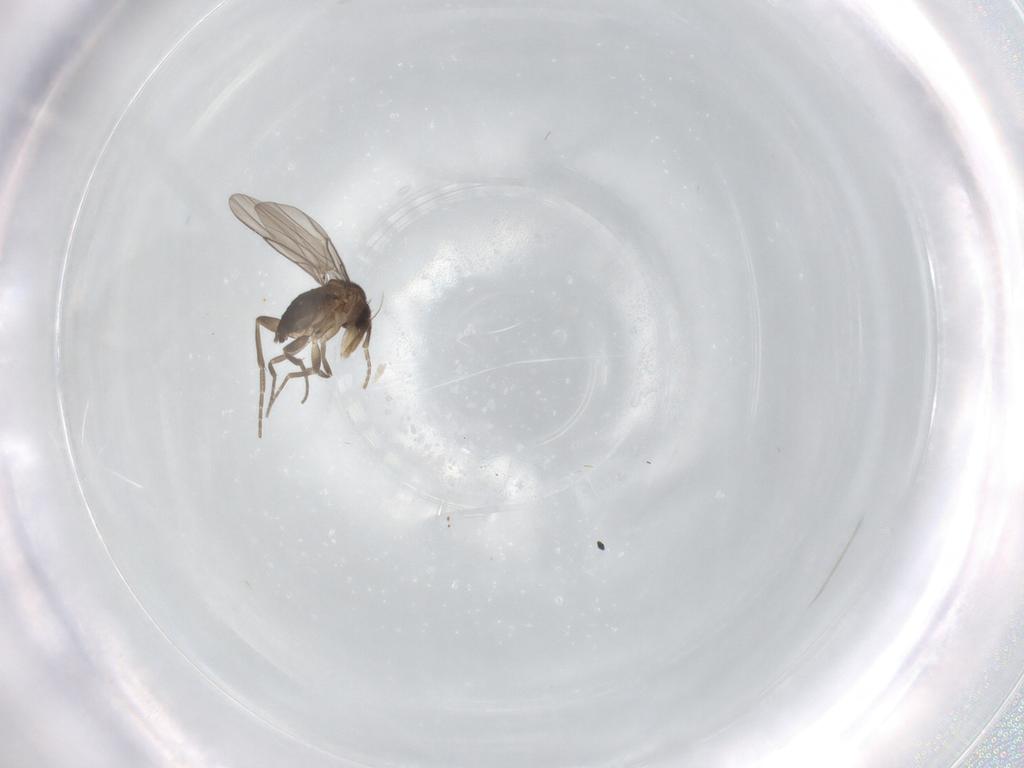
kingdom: Animalia
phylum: Arthropoda
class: Insecta
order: Diptera
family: Phoridae
